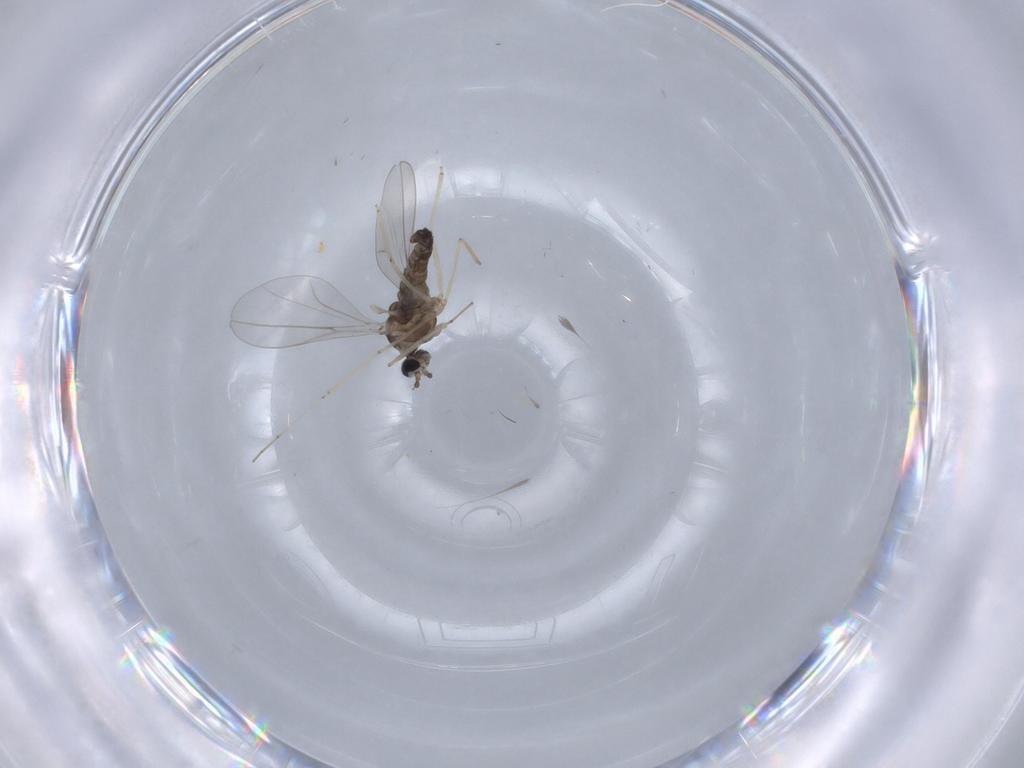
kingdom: Animalia
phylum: Arthropoda
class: Insecta
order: Diptera
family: Cecidomyiidae
